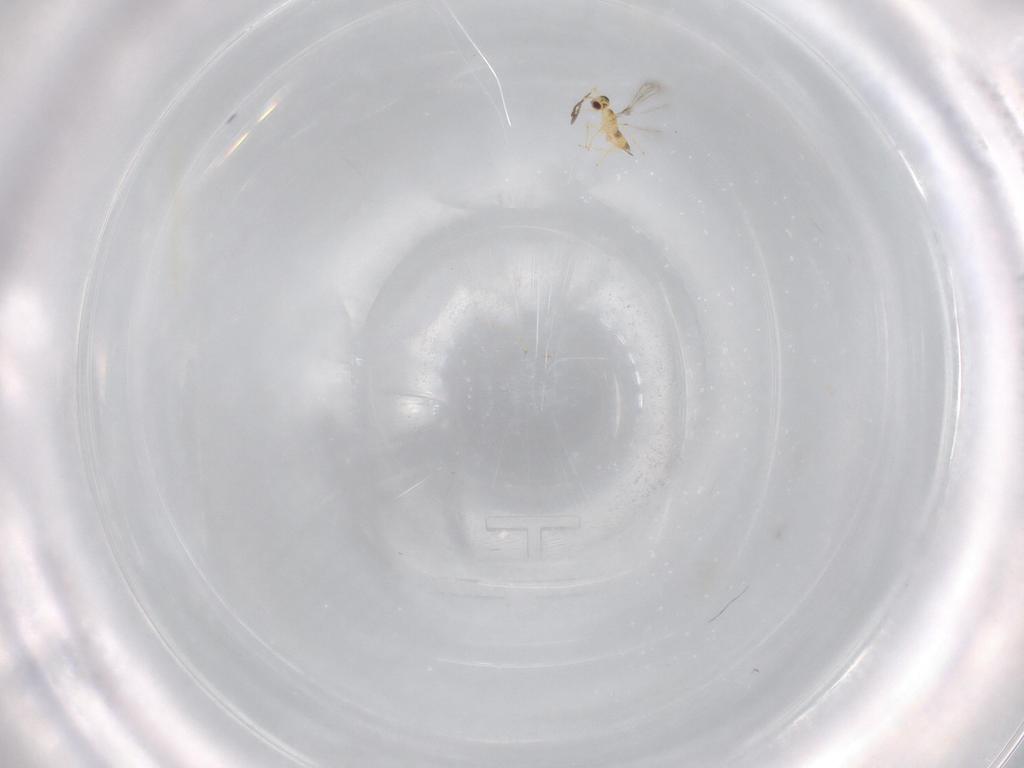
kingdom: Animalia
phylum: Arthropoda
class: Insecta
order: Hymenoptera
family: Mymaridae
